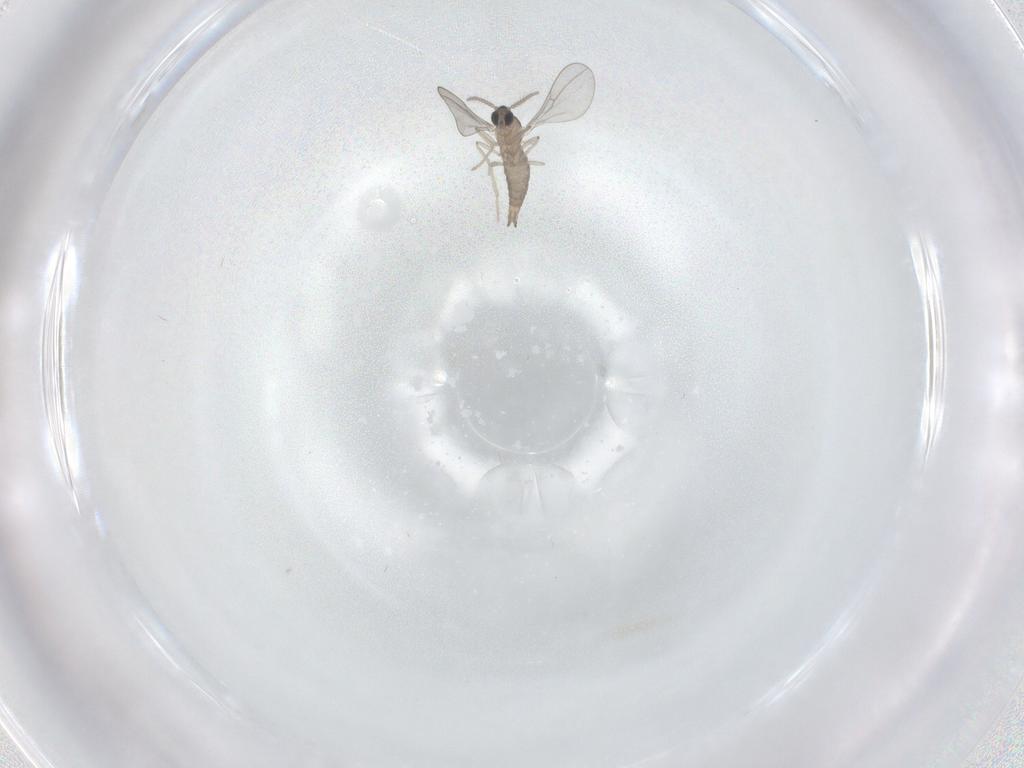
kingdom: Animalia
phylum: Arthropoda
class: Insecta
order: Diptera
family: Cecidomyiidae
